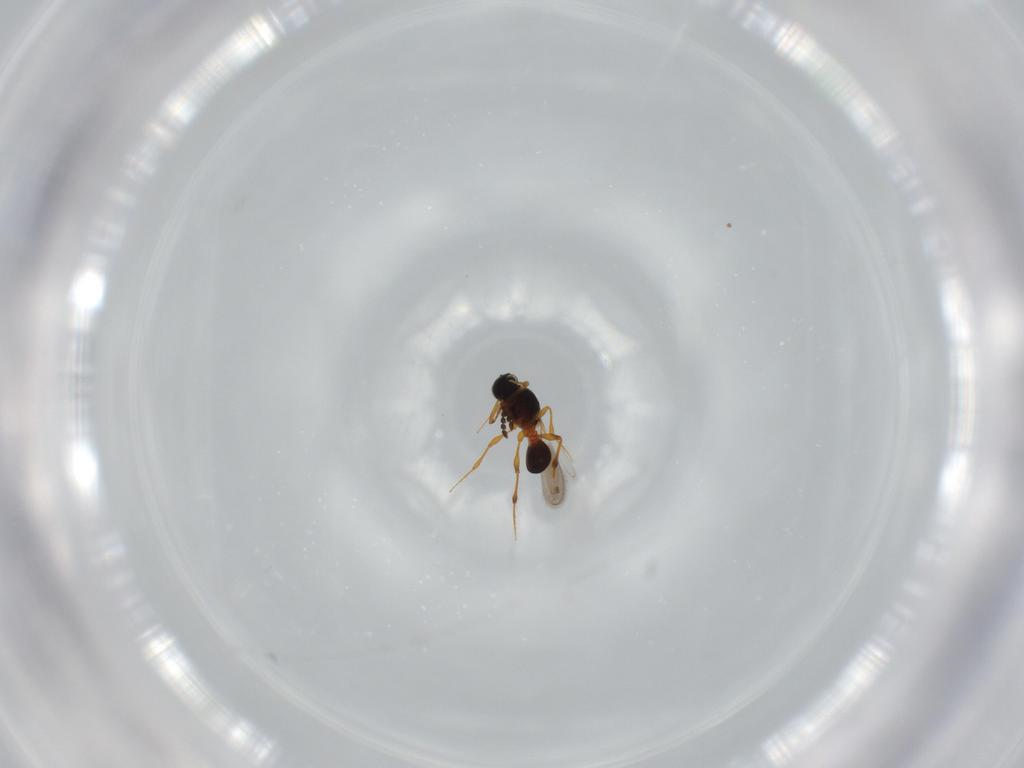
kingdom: Animalia
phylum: Arthropoda
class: Insecta
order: Hymenoptera
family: Platygastridae
